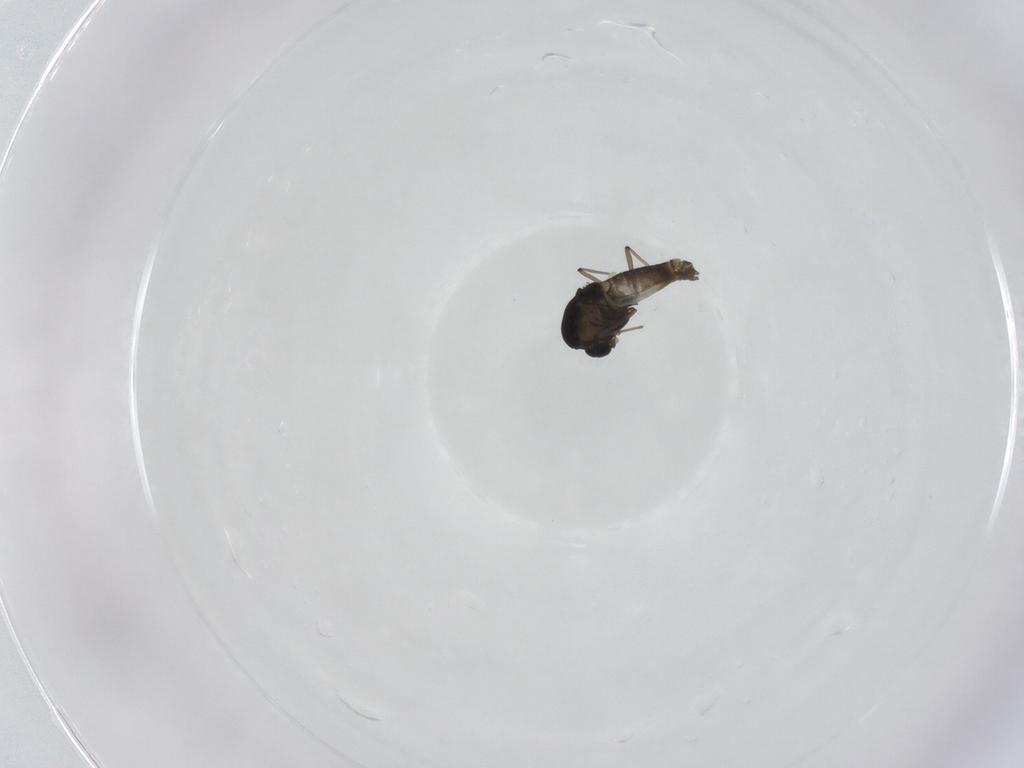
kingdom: Animalia
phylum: Arthropoda
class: Insecta
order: Diptera
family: Chironomidae
